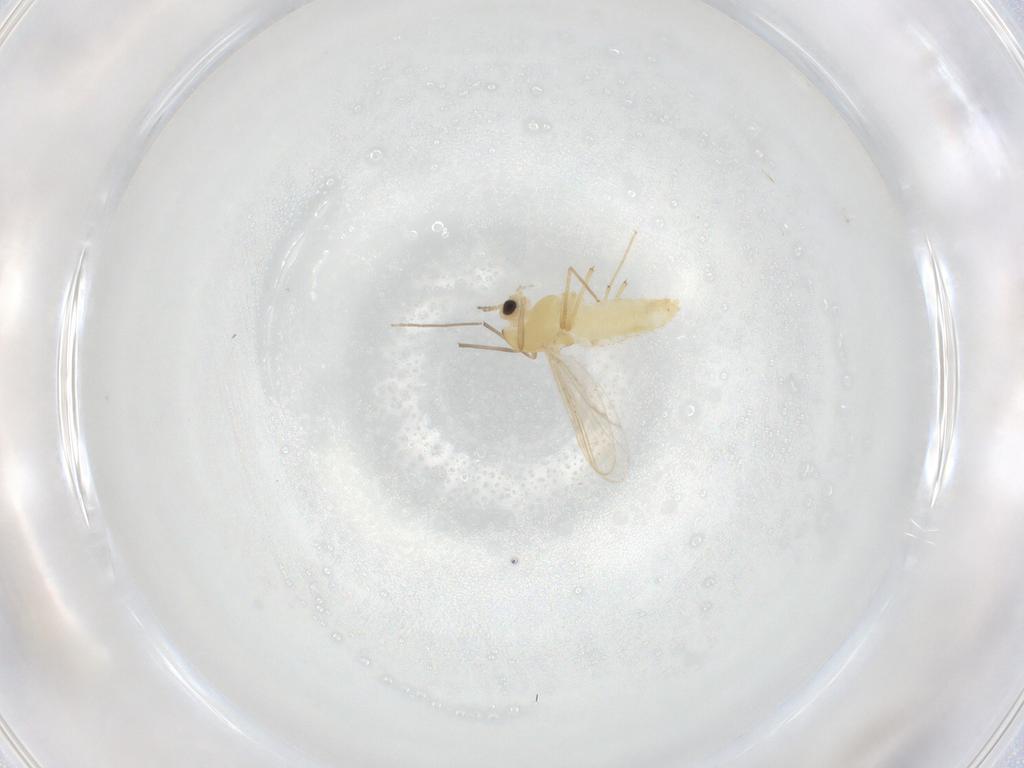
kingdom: Animalia
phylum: Arthropoda
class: Insecta
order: Diptera
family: Chironomidae
